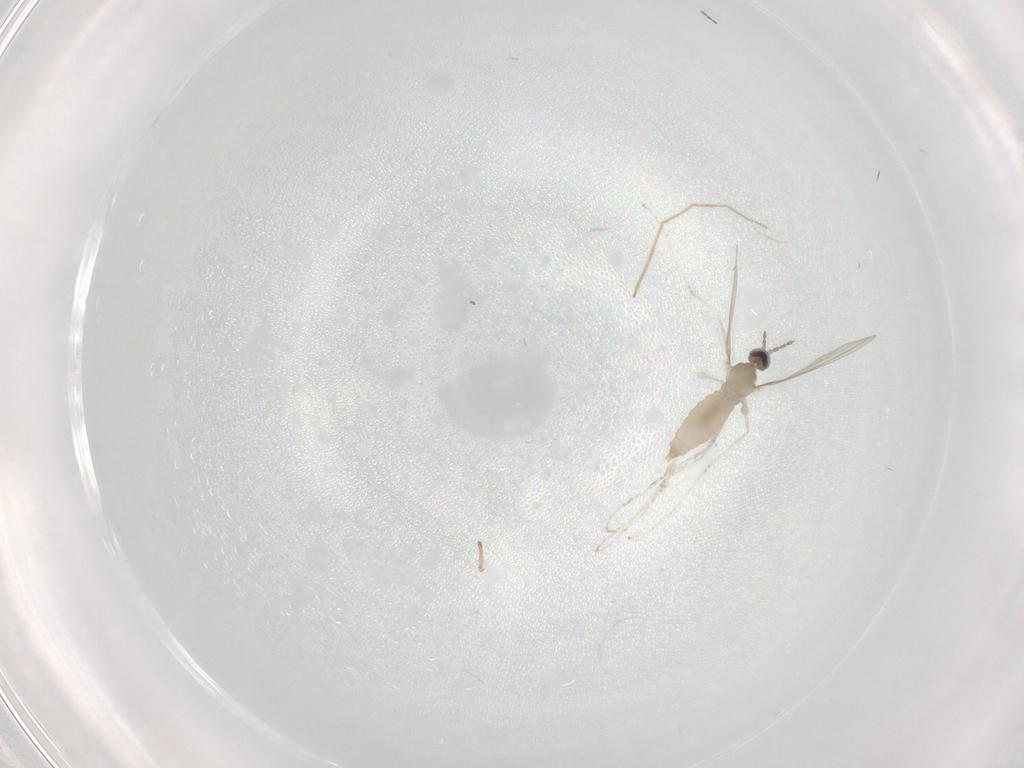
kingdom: Animalia
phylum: Arthropoda
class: Insecta
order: Diptera
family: Cecidomyiidae
